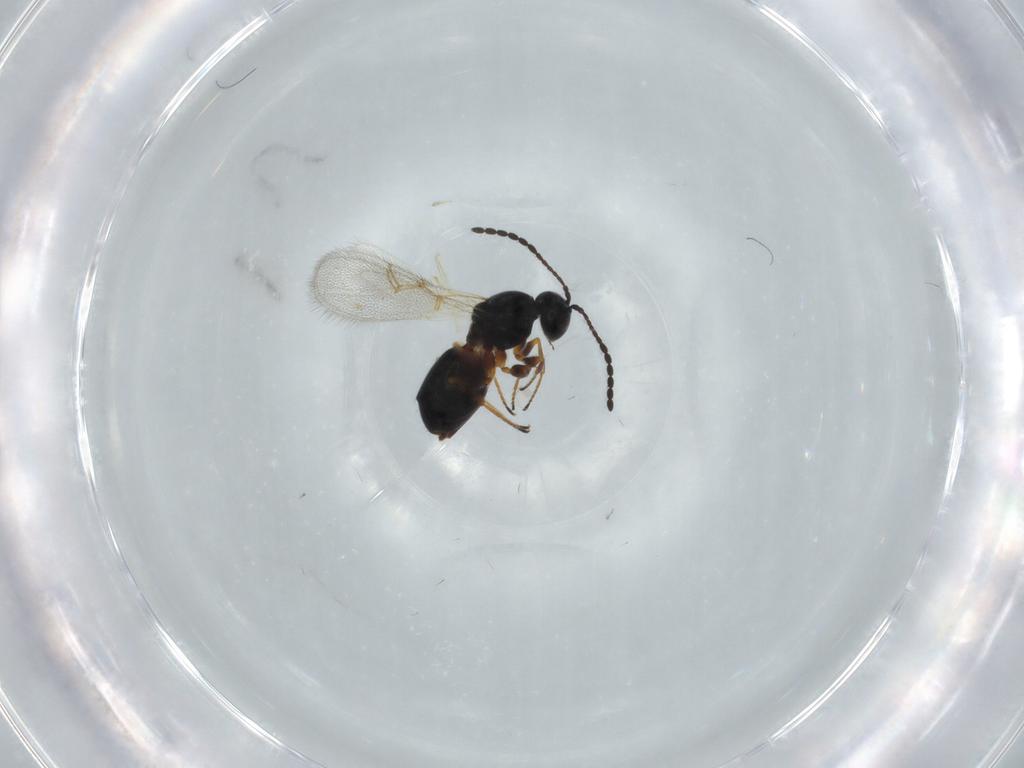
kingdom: Animalia
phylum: Arthropoda
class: Insecta
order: Hymenoptera
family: Figitidae
